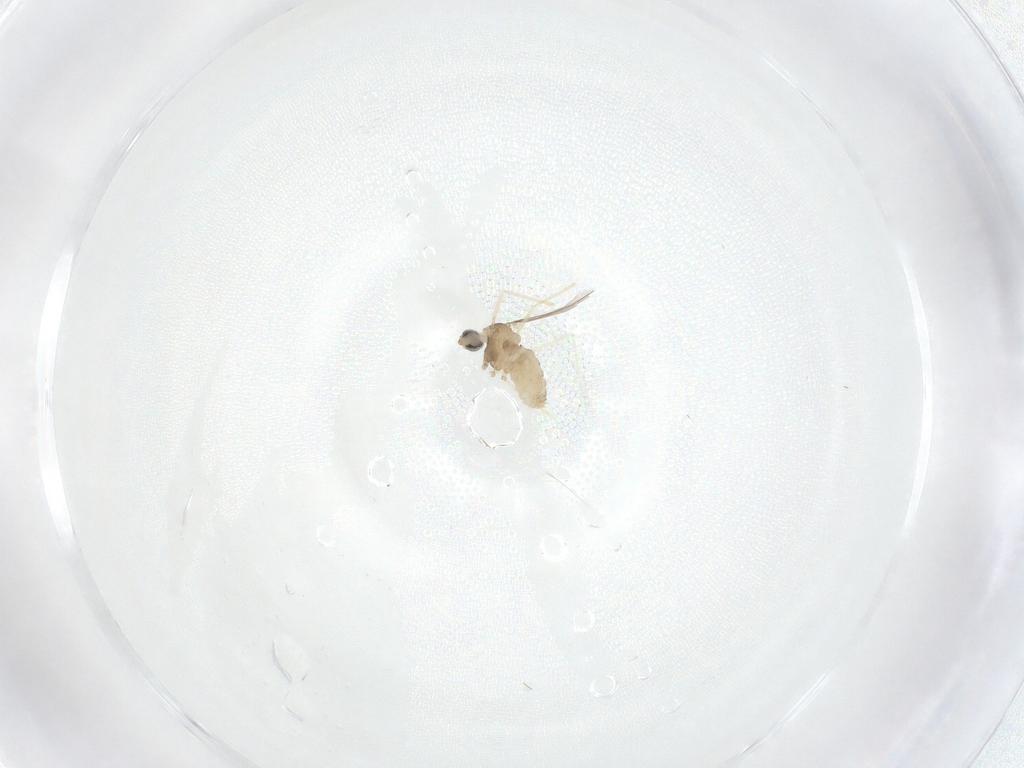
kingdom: Animalia
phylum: Arthropoda
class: Insecta
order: Diptera
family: Cecidomyiidae
